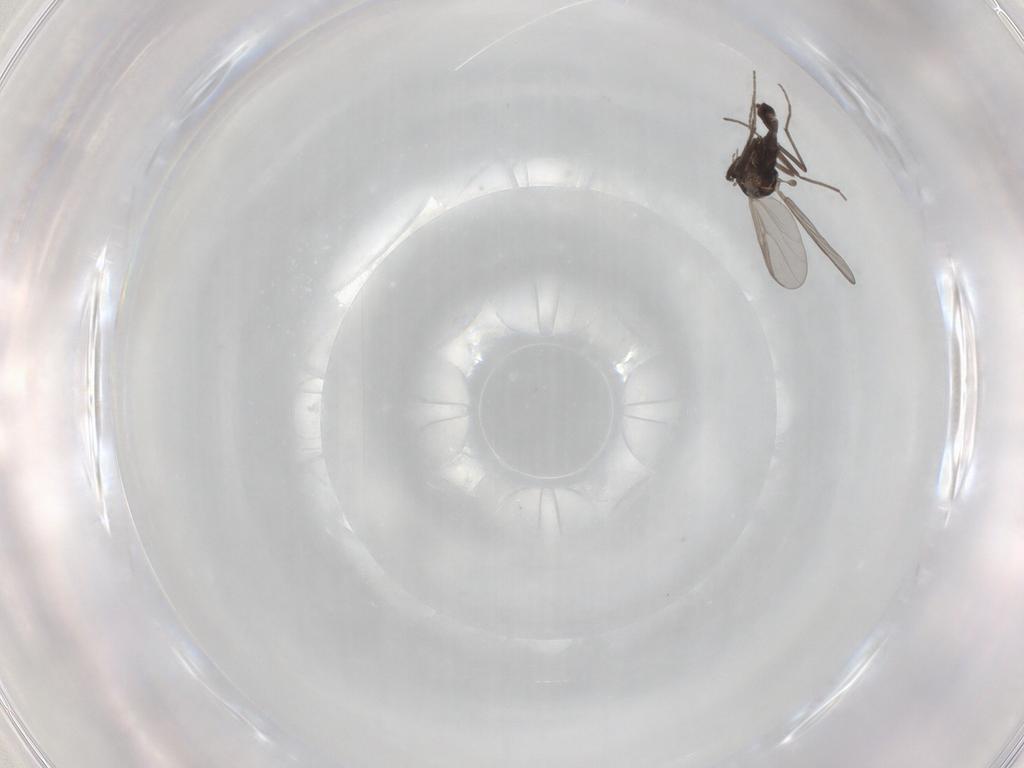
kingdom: Animalia
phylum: Arthropoda
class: Insecta
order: Diptera
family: Chironomidae
